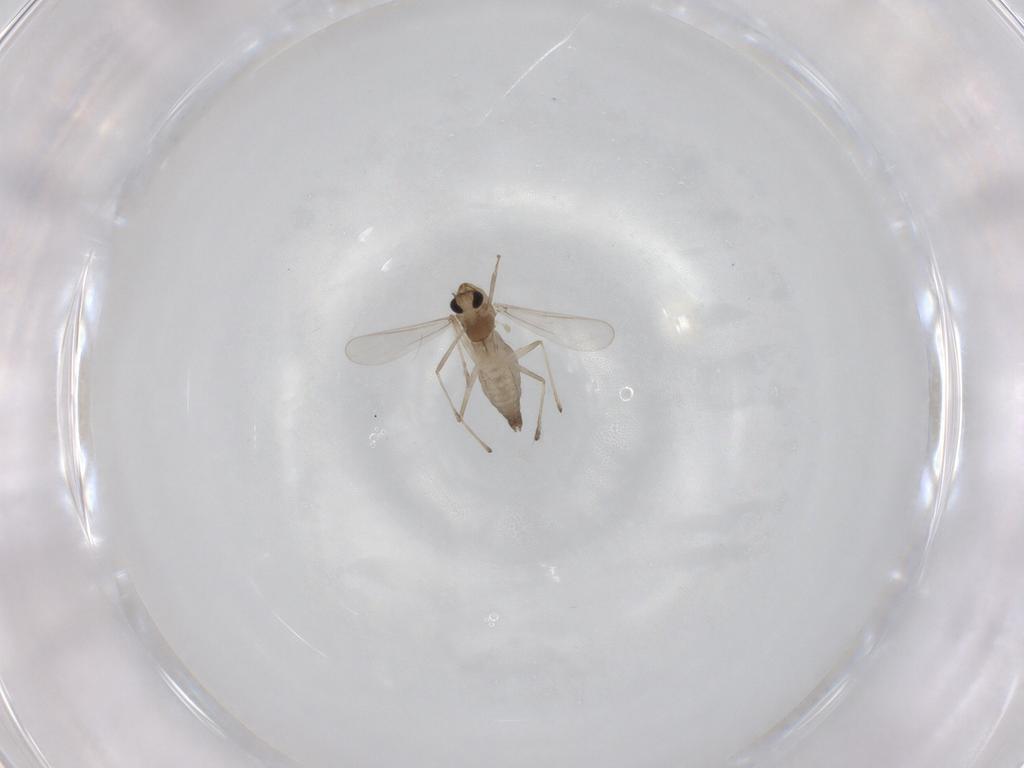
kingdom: Animalia
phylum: Arthropoda
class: Insecta
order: Diptera
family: Chironomidae
